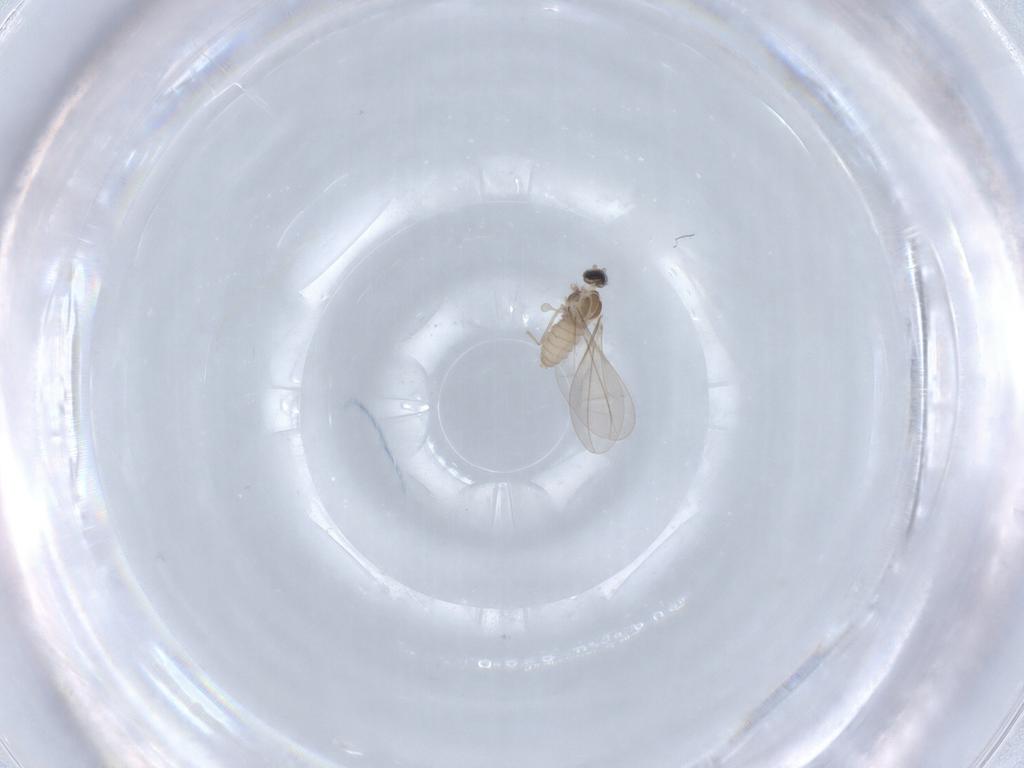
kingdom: Animalia
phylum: Arthropoda
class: Insecta
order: Diptera
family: Cecidomyiidae
